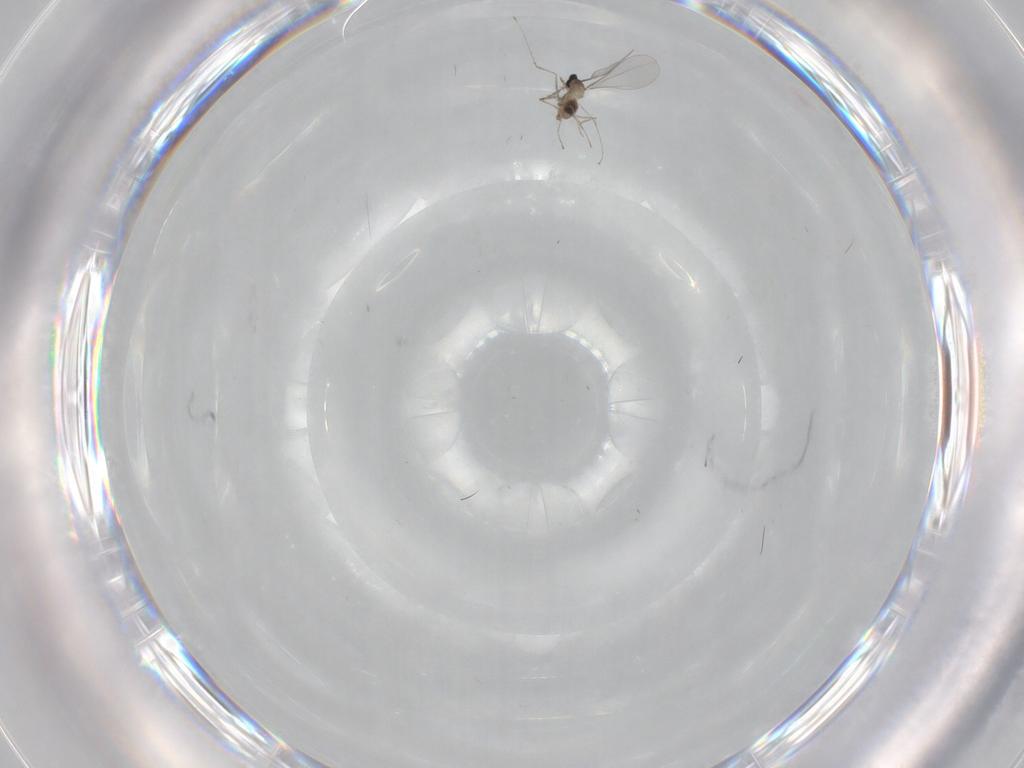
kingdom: Animalia
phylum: Arthropoda
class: Insecta
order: Diptera
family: Cecidomyiidae
